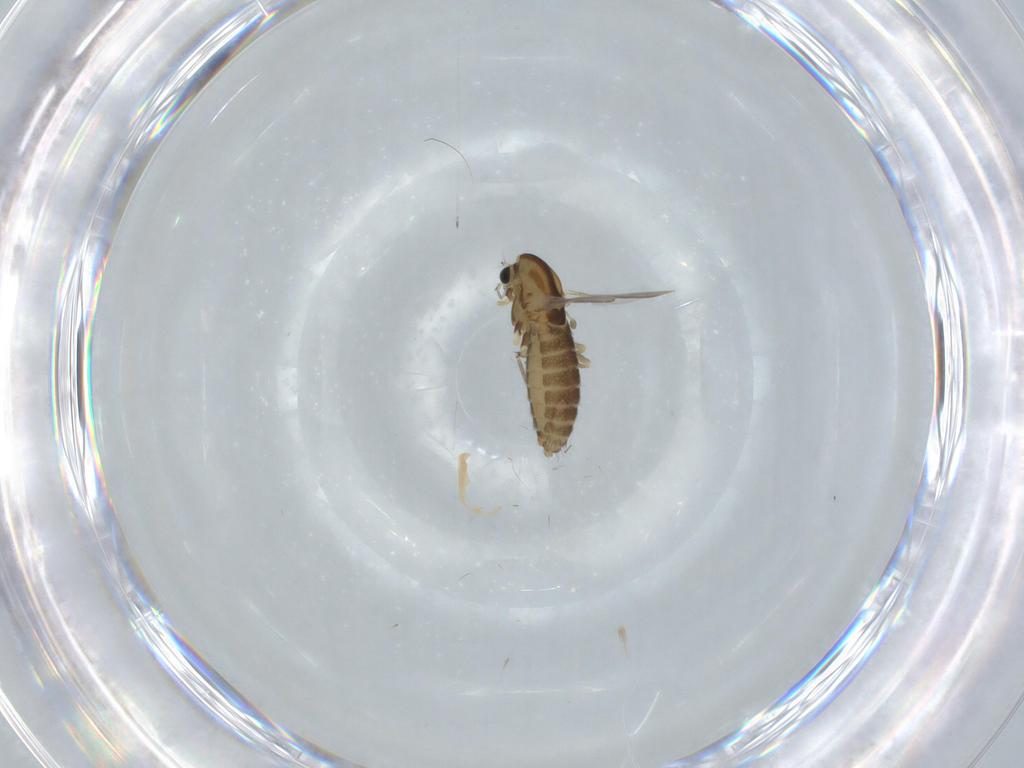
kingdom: Animalia
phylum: Arthropoda
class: Insecta
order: Diptera
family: Chironomidae
